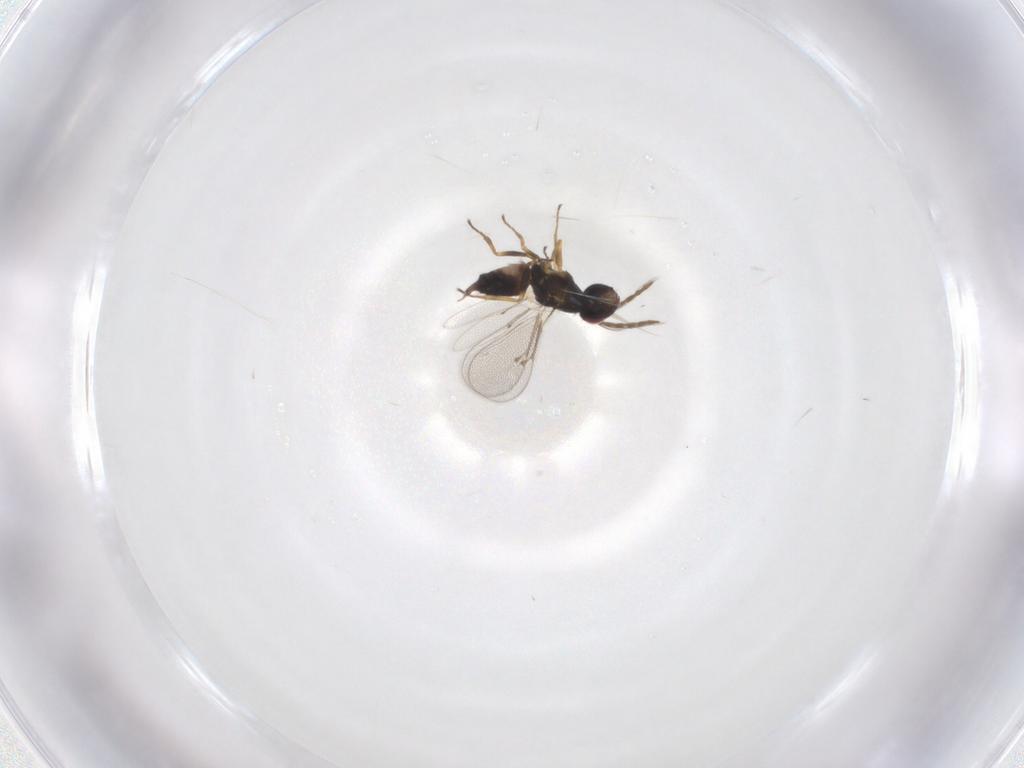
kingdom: Animalia
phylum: Arthropoda
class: Insecta
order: Hymenoptera
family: Eulophidae
